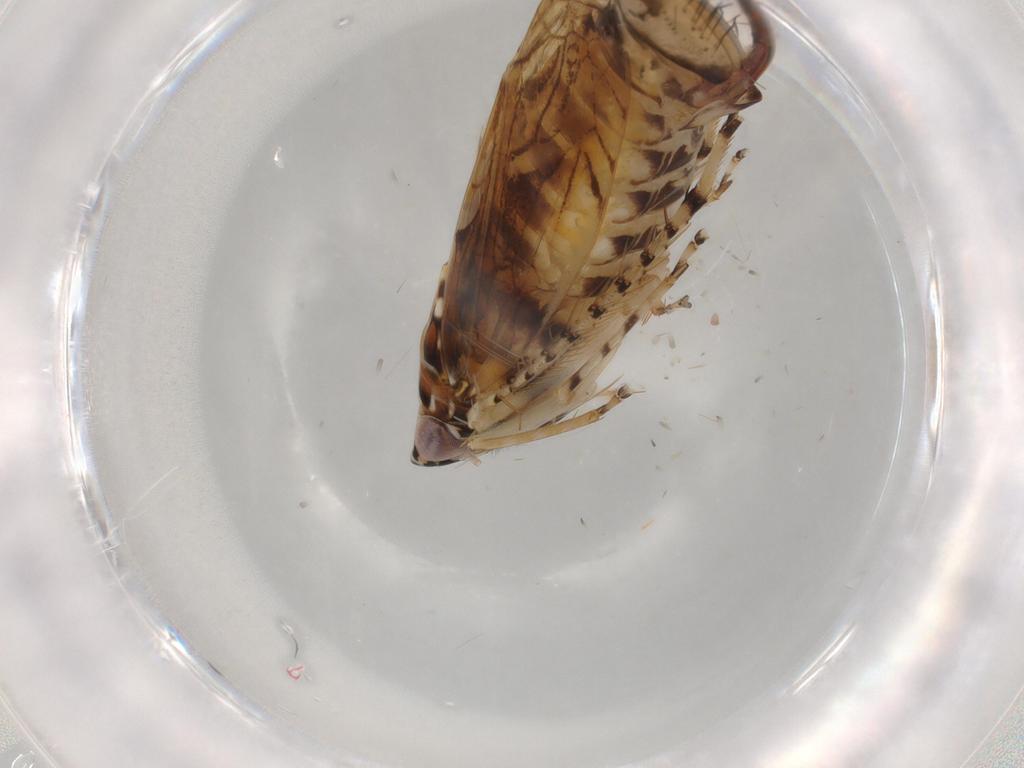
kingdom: Animalia
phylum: Arthropoda
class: Insecta
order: Hemiptera
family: Cicadellidae
